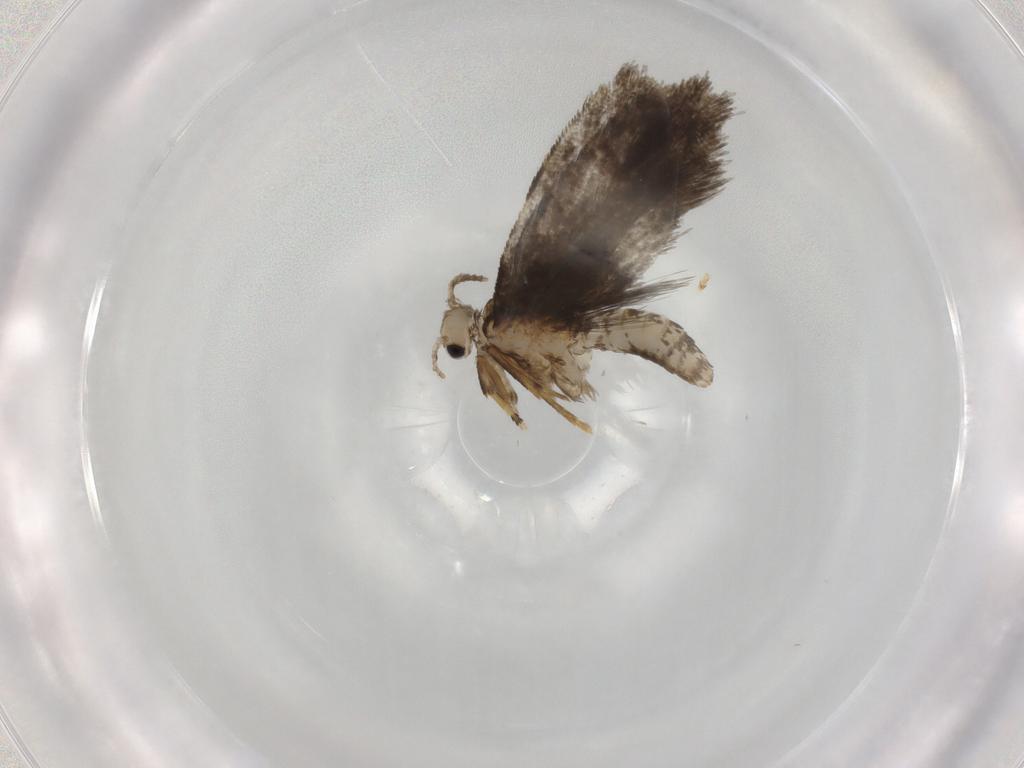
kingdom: Animalia
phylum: Arthropoda
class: Insecta
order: Lepidoptera
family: Psychidae
